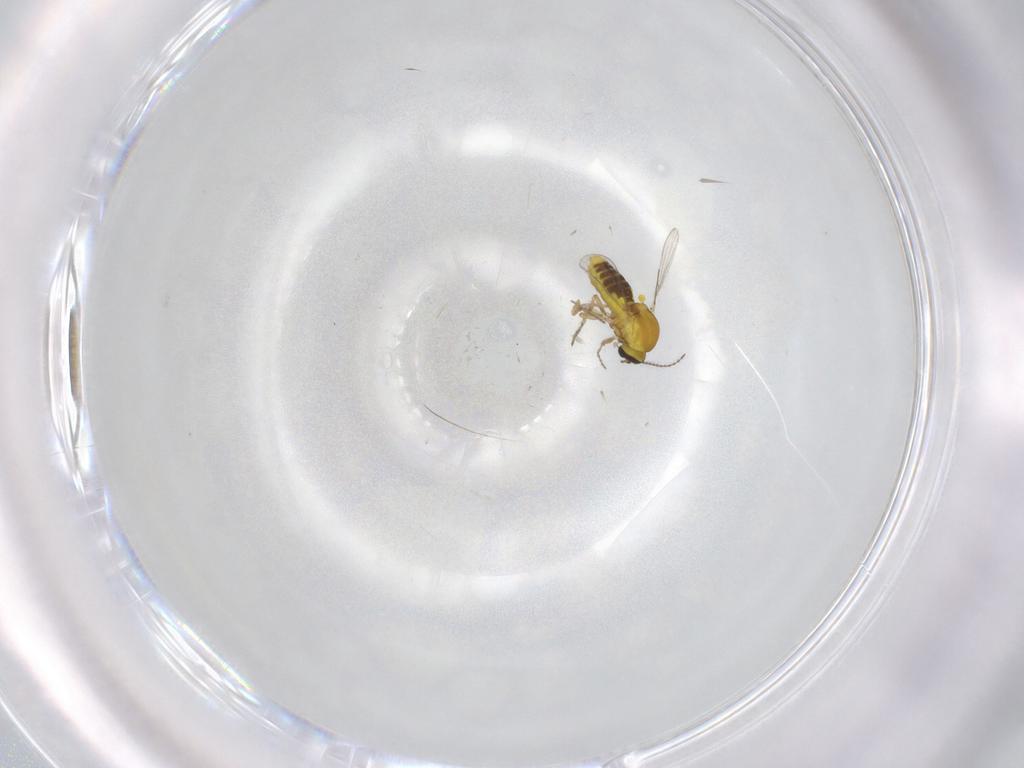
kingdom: Animalia
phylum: Arthropoda
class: Insecta
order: Diptera
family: Ceratopogonidae
